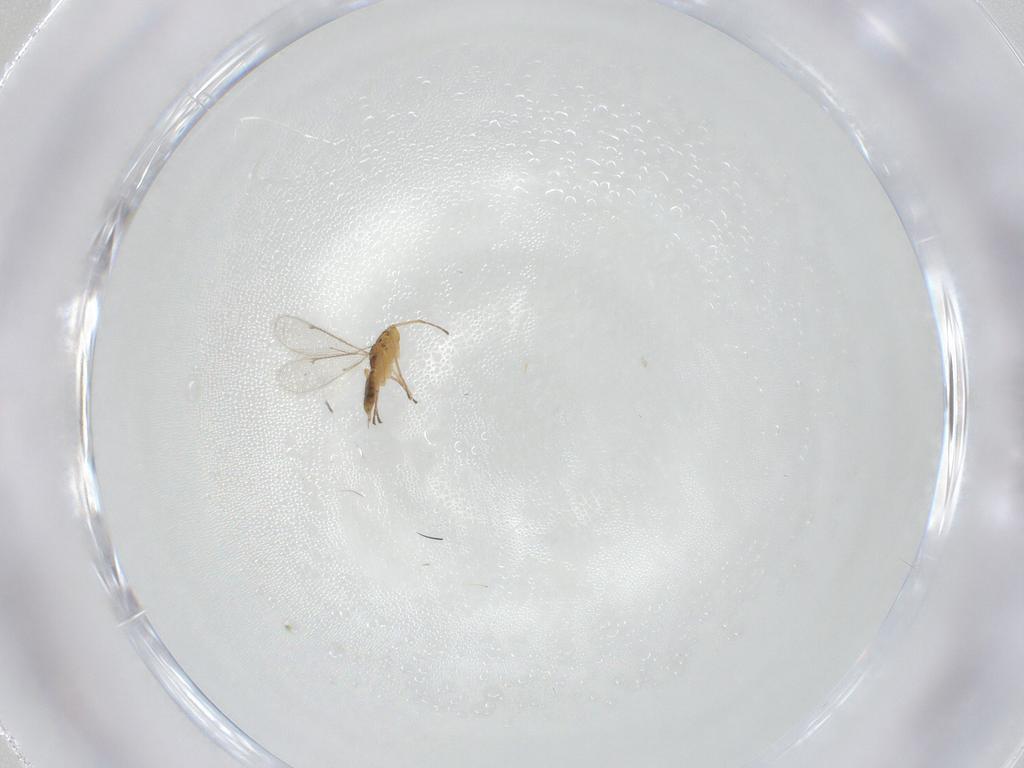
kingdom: Animalia
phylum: Arthropoda
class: Insecta
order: Hymenoptera
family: Eulophidae
